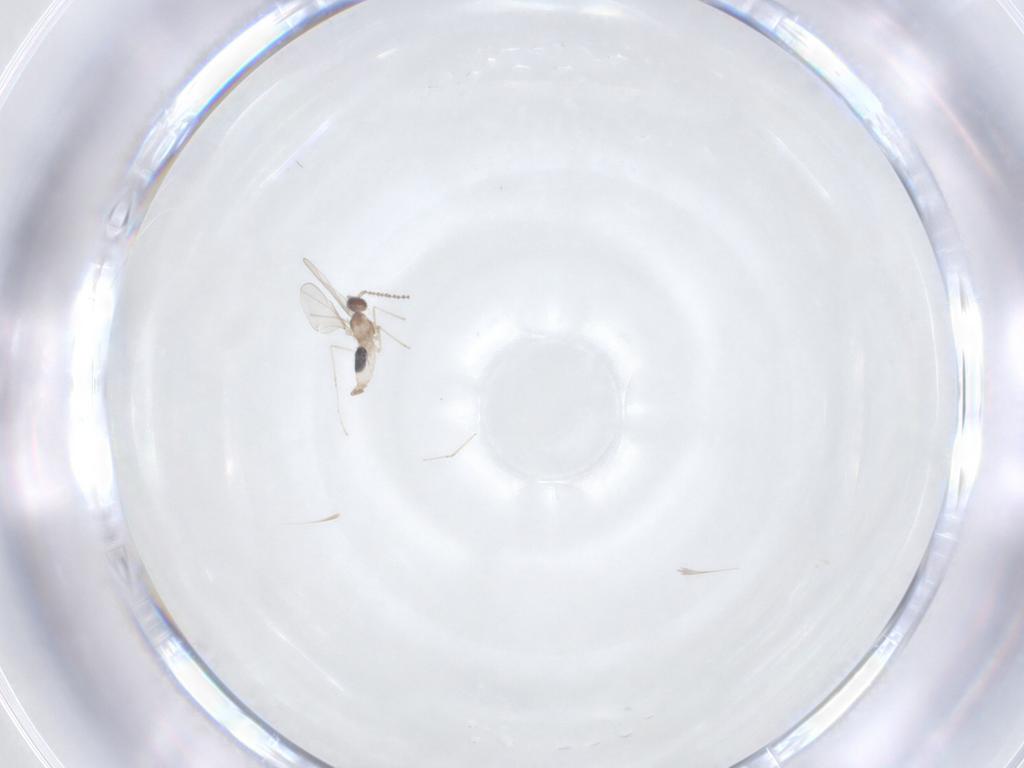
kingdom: Animalia
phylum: Arthropoda
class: Insecta
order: Diptera
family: Cecidomyiidae
